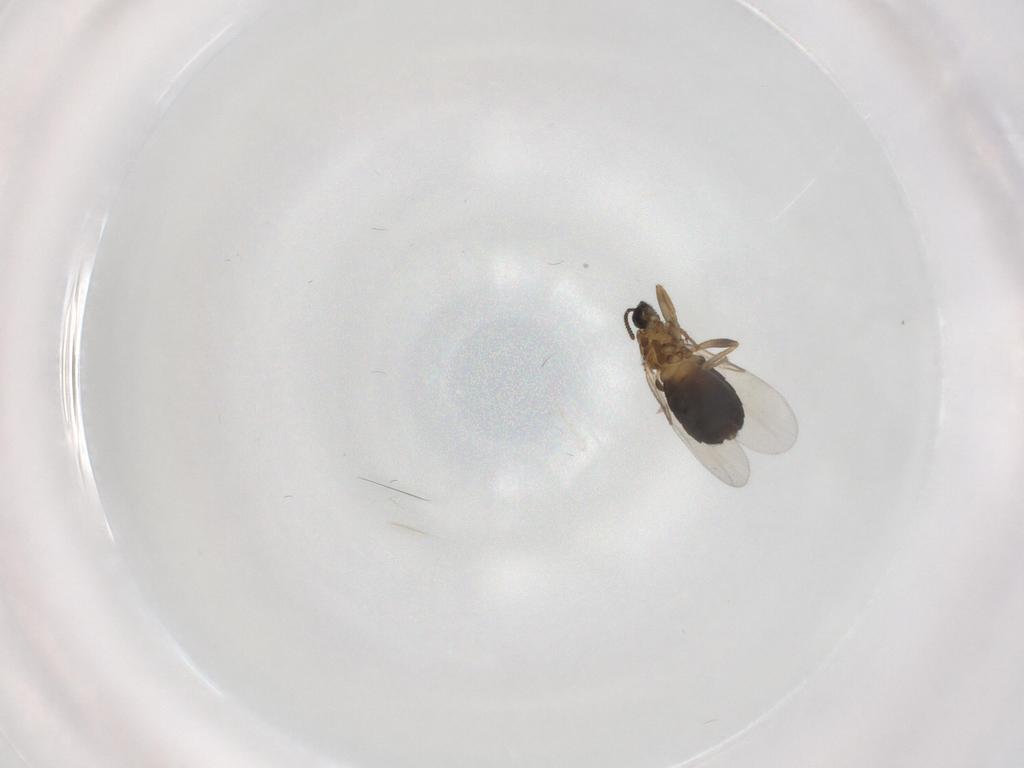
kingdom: Animalia
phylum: Arthropoda
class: Insecta
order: Diptera
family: Scatopsidae
